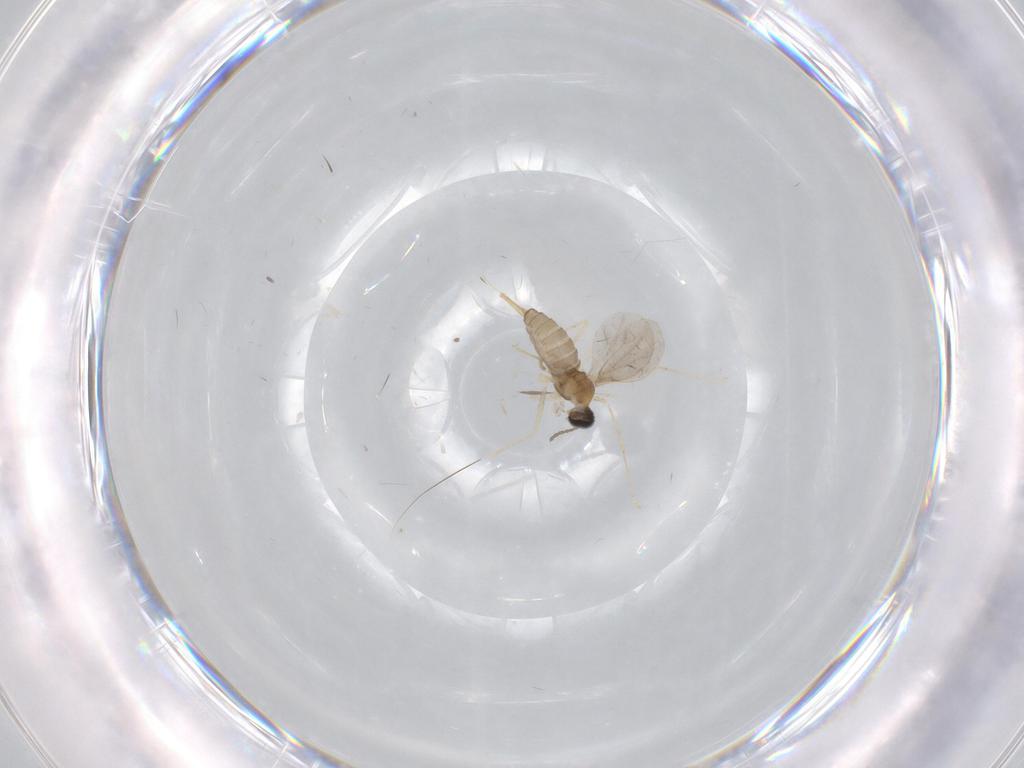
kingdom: Animalia
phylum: Arthropoda
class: Insecta
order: Diptera
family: Cecidomyiidae
